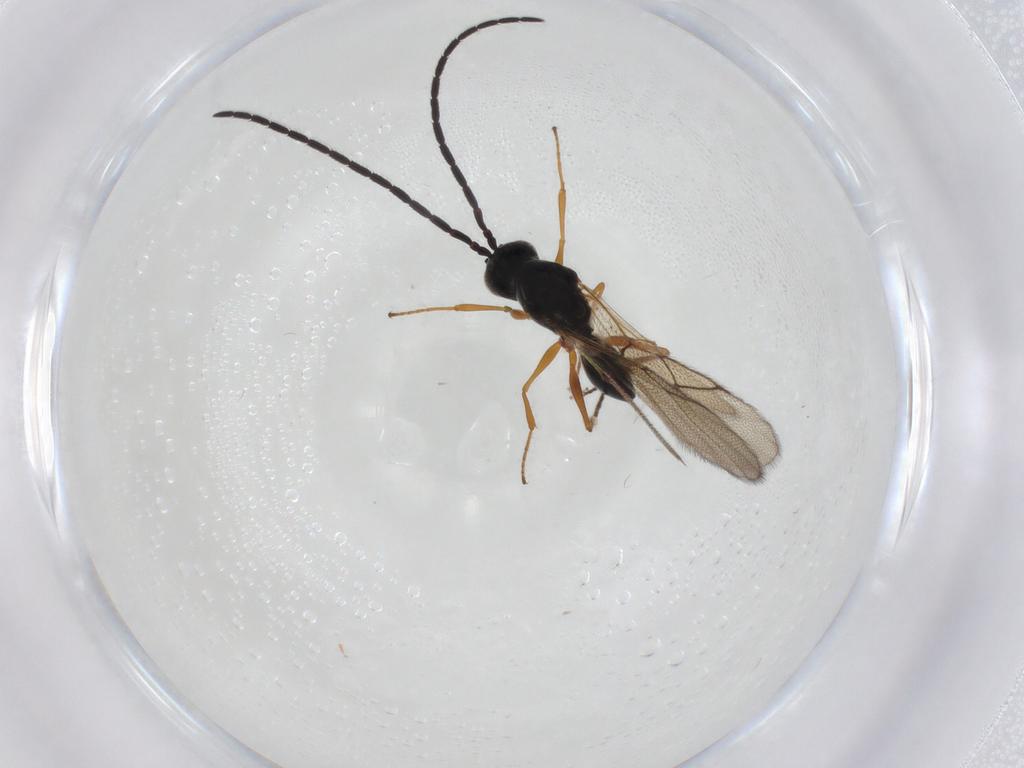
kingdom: Animalia
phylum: Arthropoda
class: Insecta
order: Hymenoptera
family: Figitidae
